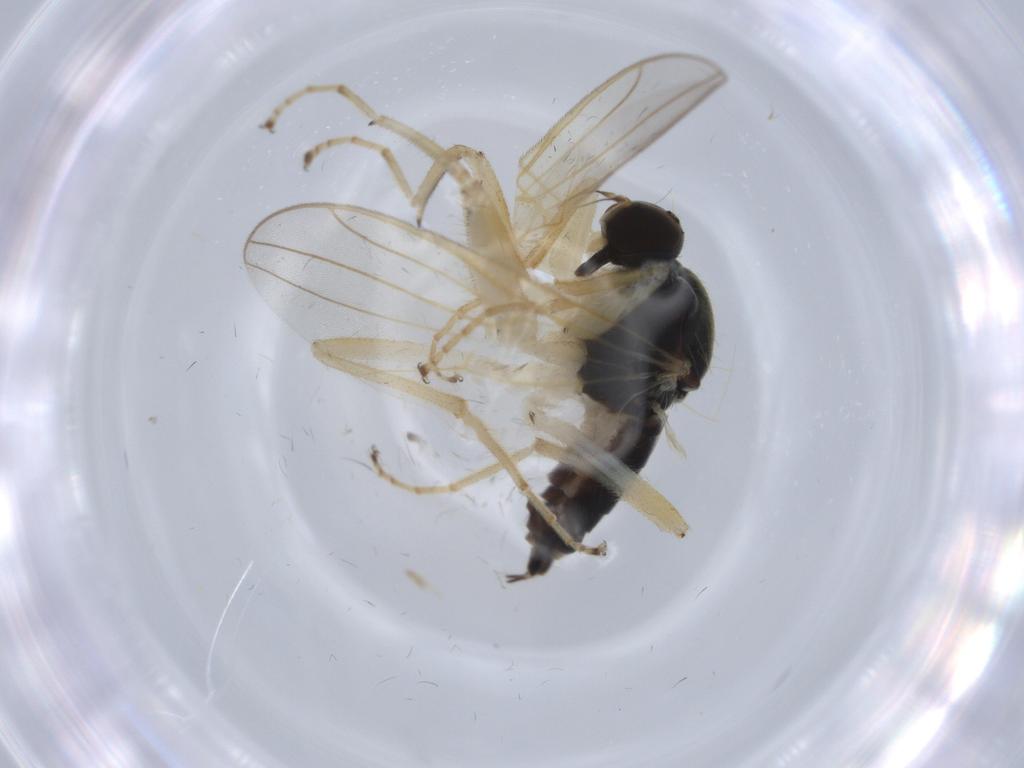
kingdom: Animalia
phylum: Arthropoda
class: Insecta
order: Diptera
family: Hybotidae
